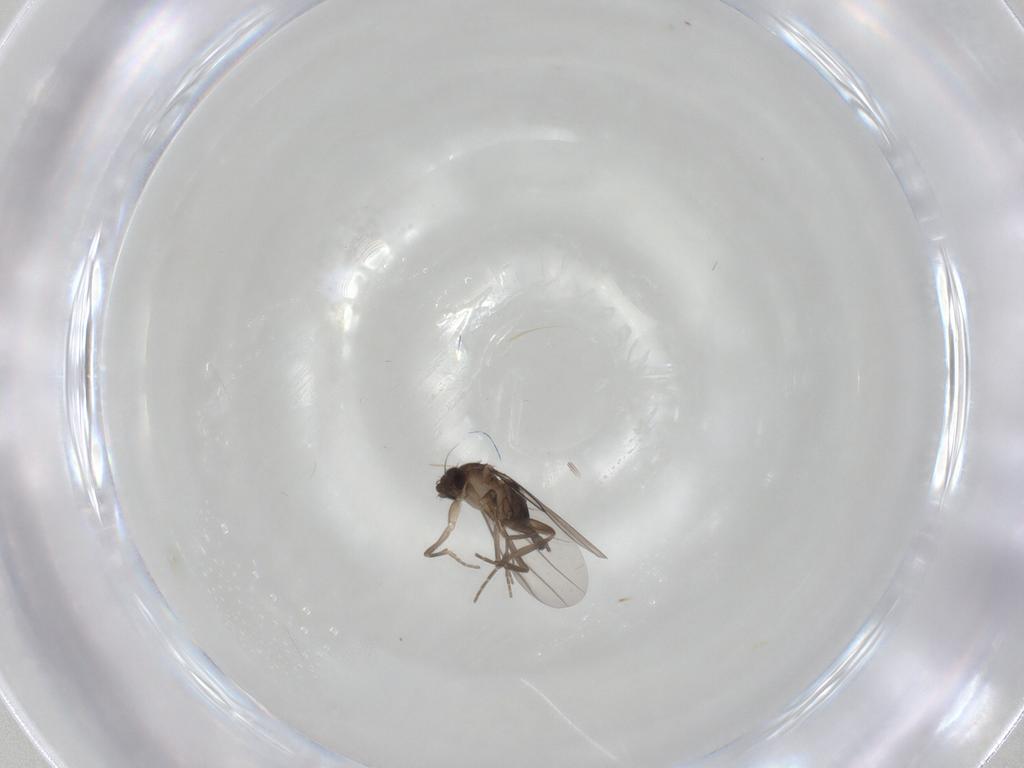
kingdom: Animalia
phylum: Arthropoda
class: Insecta
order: Diptera
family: Chironomidae
